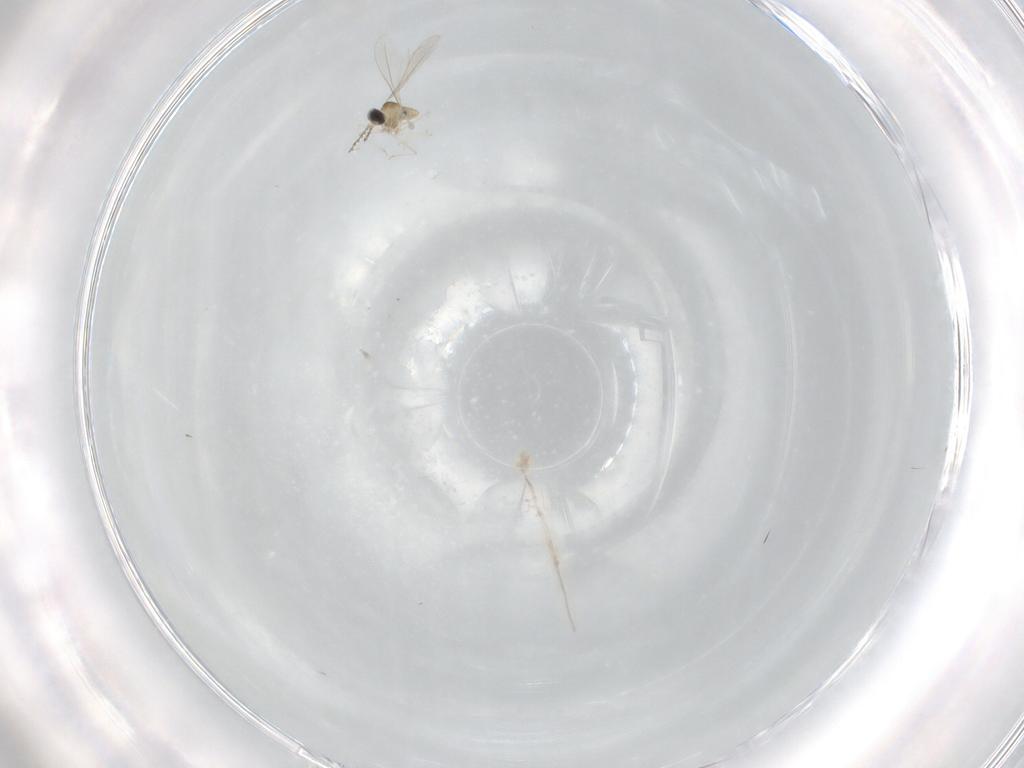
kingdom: Animalia
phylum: Arthropoda
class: Insecta
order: Diptera
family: Cecidomyiidae
